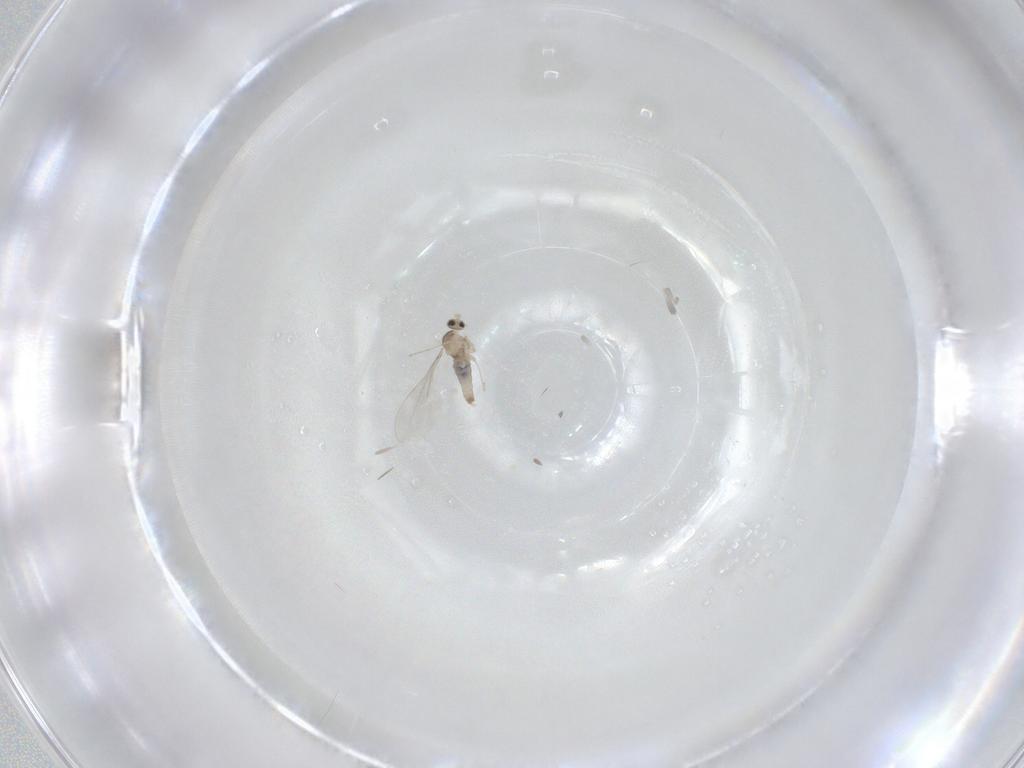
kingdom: Animalia
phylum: Arthropoda
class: Insecta
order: Diptera
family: Cecidomyiidae
